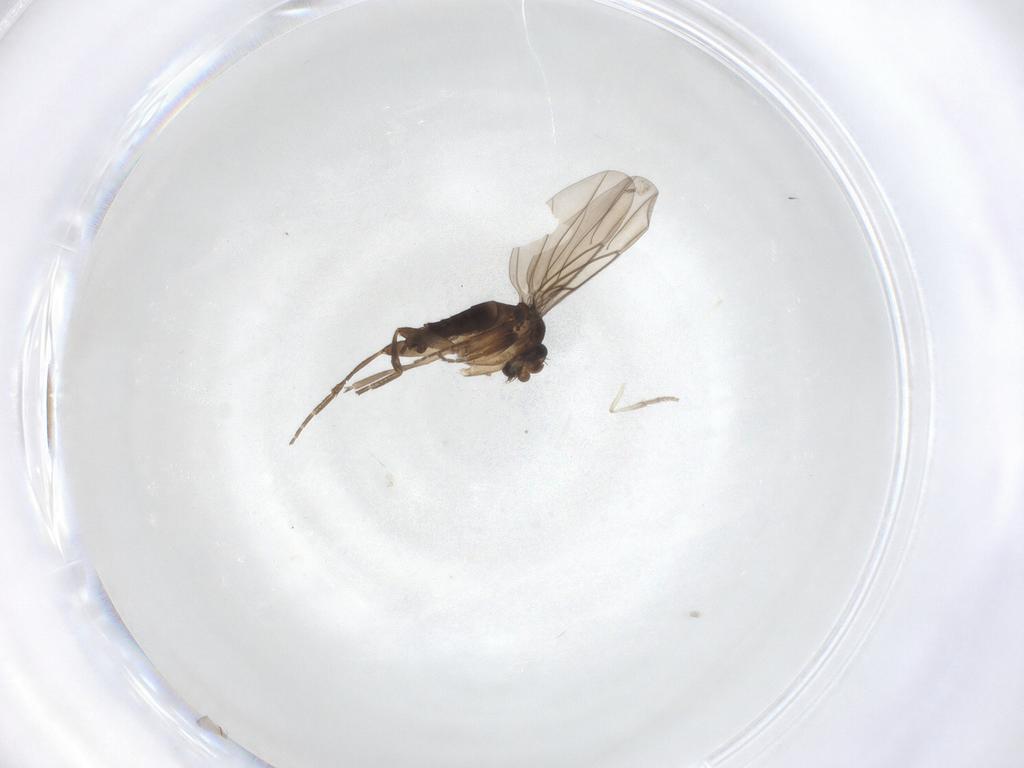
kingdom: Animalia
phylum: Arthropoda
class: Insecta
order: Diptera
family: Phoridae
